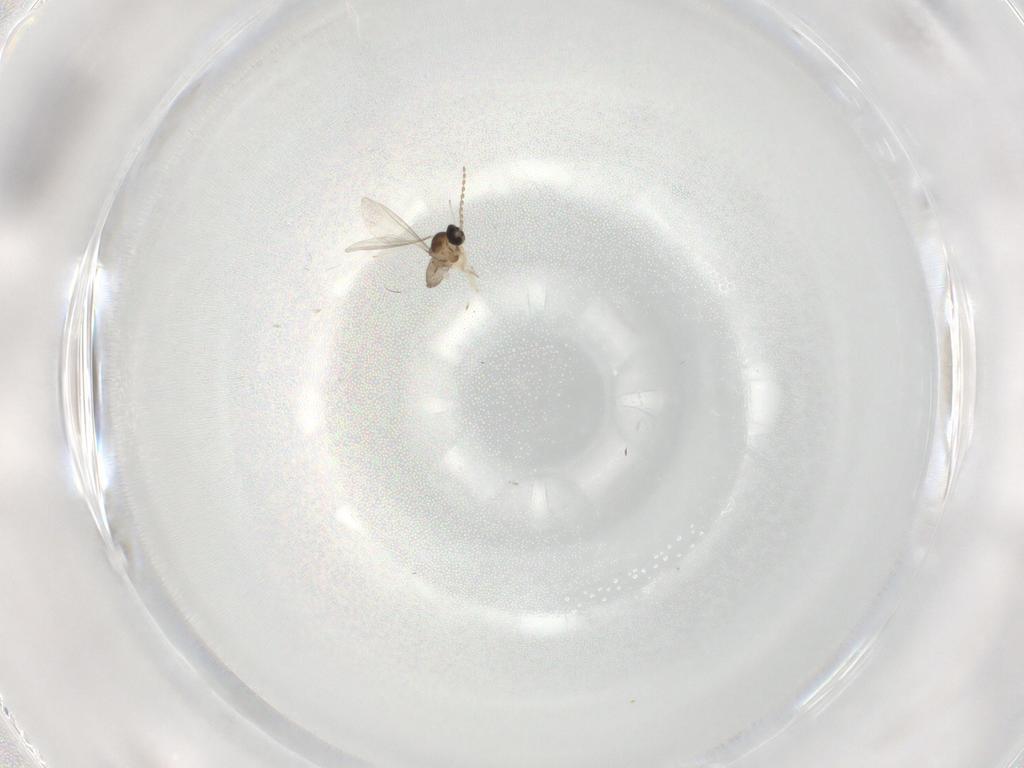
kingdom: Animalia
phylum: Arthropoda
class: Insecta
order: Diptera
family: Cecidomyiidae
